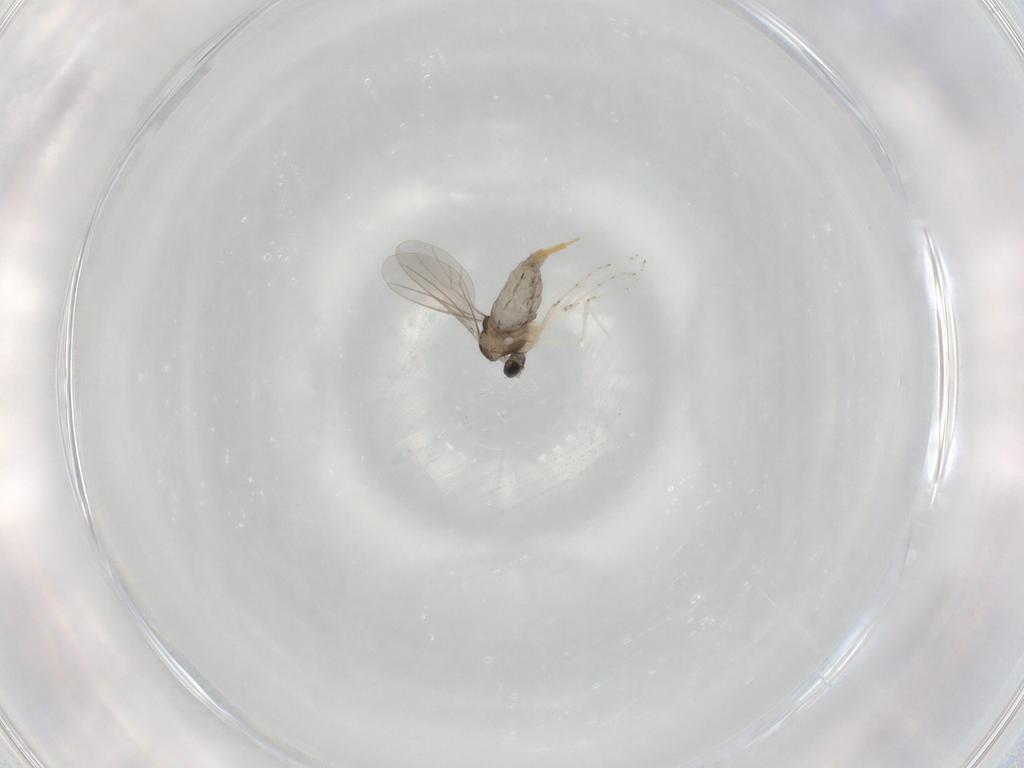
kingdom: Animalia
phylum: Arthropoda
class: Insecta
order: Diptera
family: Cecidomyiidae
